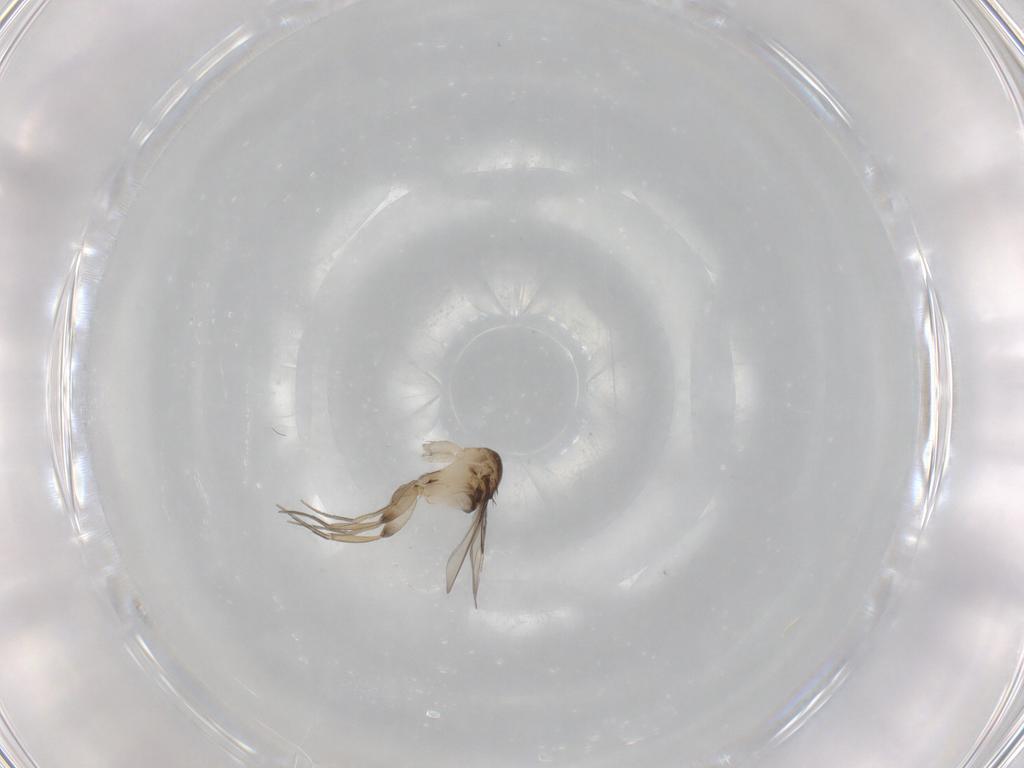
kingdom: Animalia
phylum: Arthropoda
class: Insecta
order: Diptera
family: Phoridae
